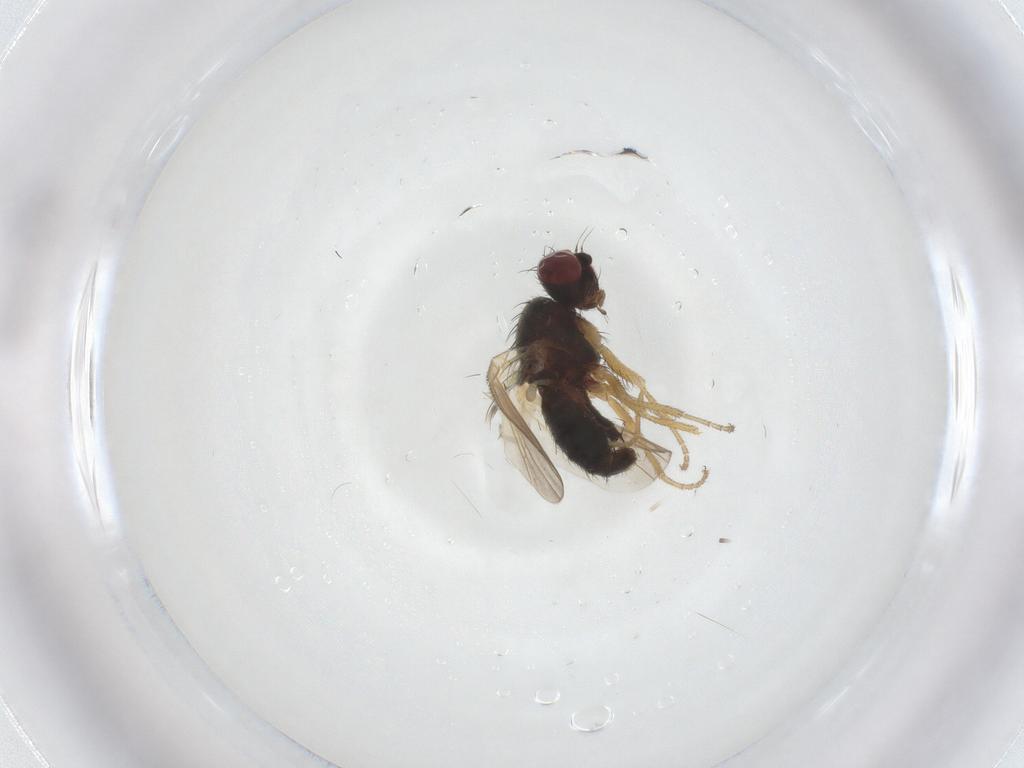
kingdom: Animalia
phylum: Arthropoda
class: Insecta
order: Diptera
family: Heleomyzidae
